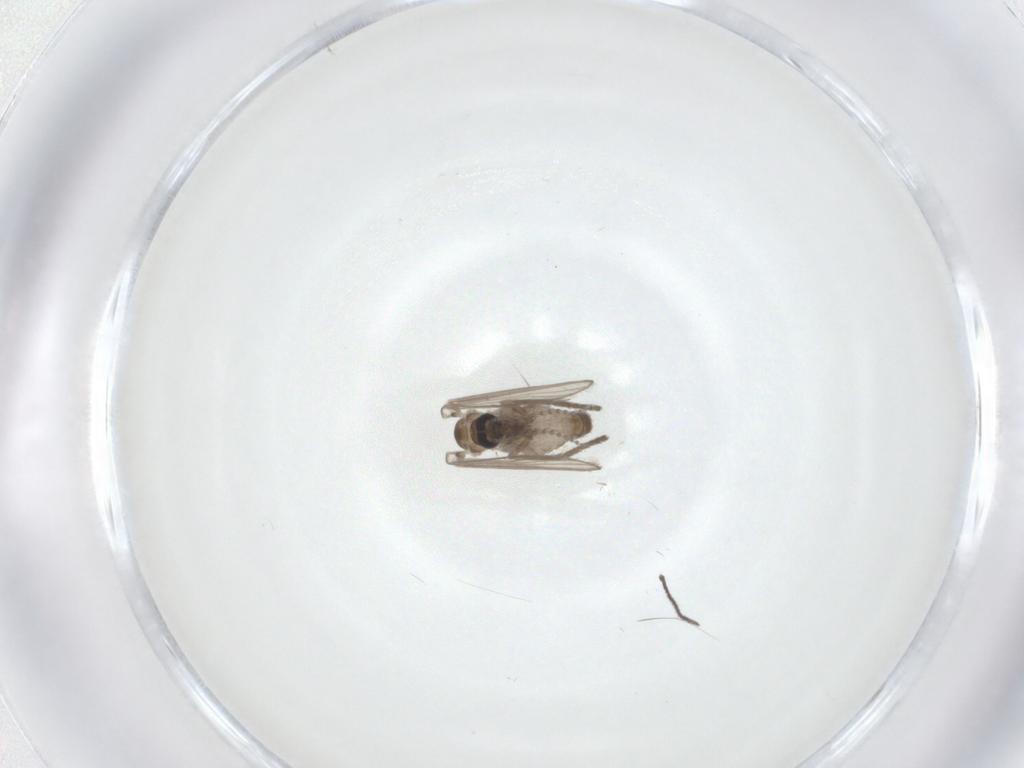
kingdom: Animalia
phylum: Arthropoda
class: Insecta
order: Diptera
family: Psychodidae
